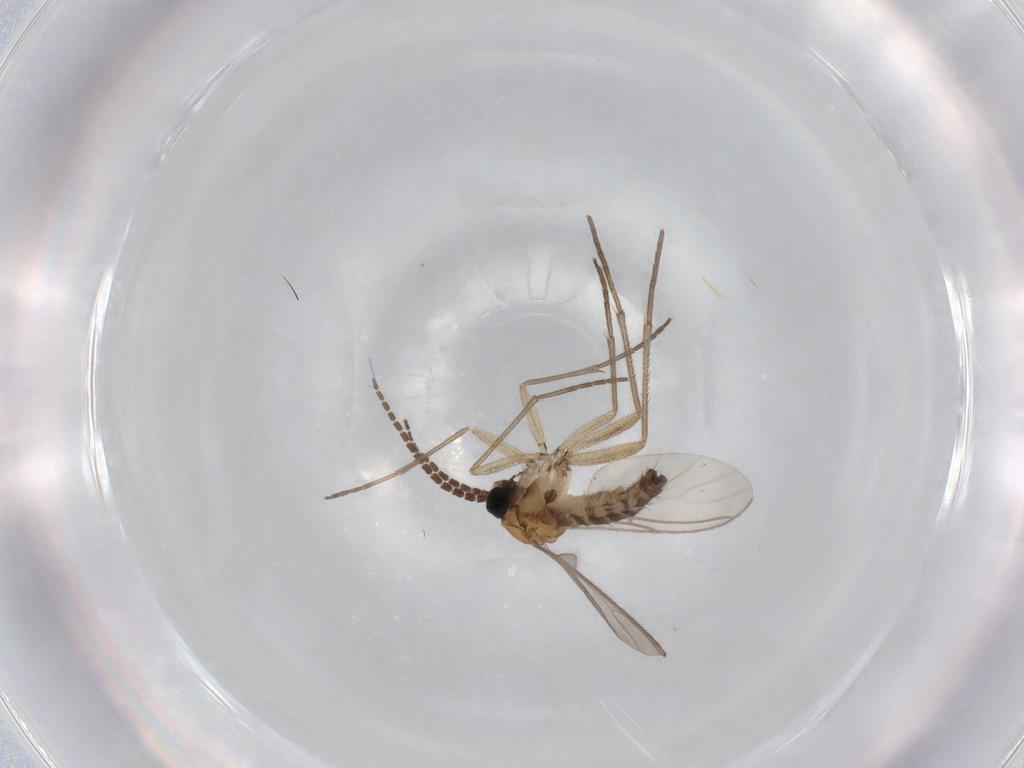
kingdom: Animalia
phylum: Arthropoda
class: Insecta
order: Diptera
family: Sciaridae
